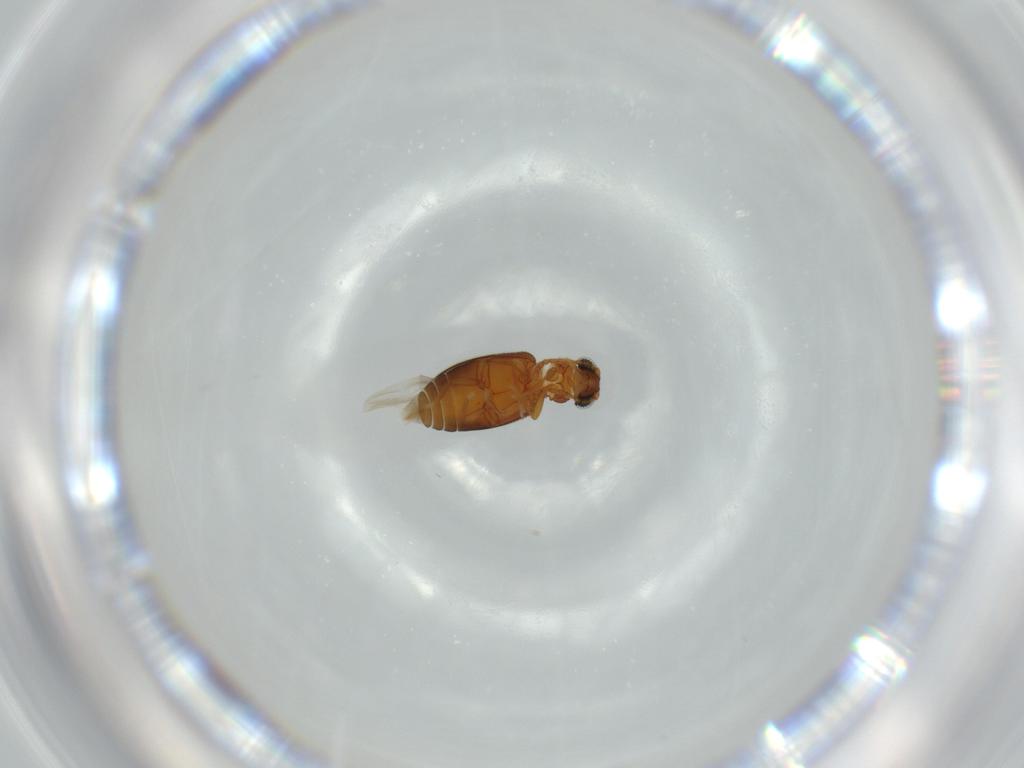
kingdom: Animalia
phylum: Arthropoda
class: Insecta
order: Coleoptera
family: Aderidae
